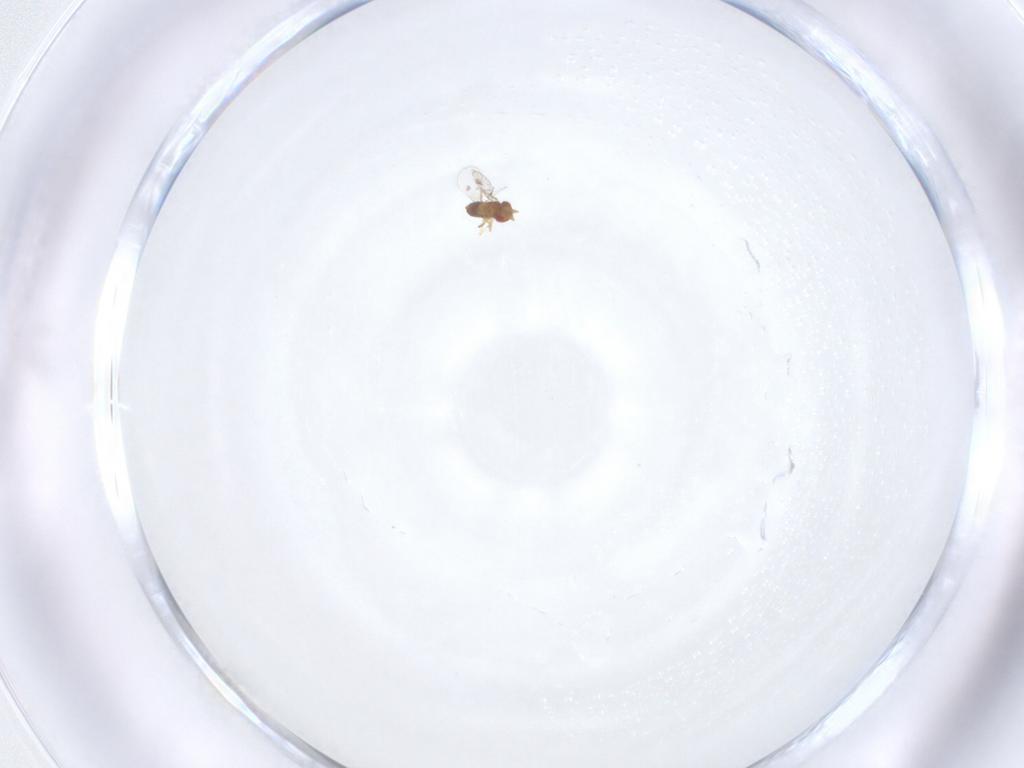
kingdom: Animalia
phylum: Arthropoda
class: Insecta
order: Hymenoptera
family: Trichogrammatidae
